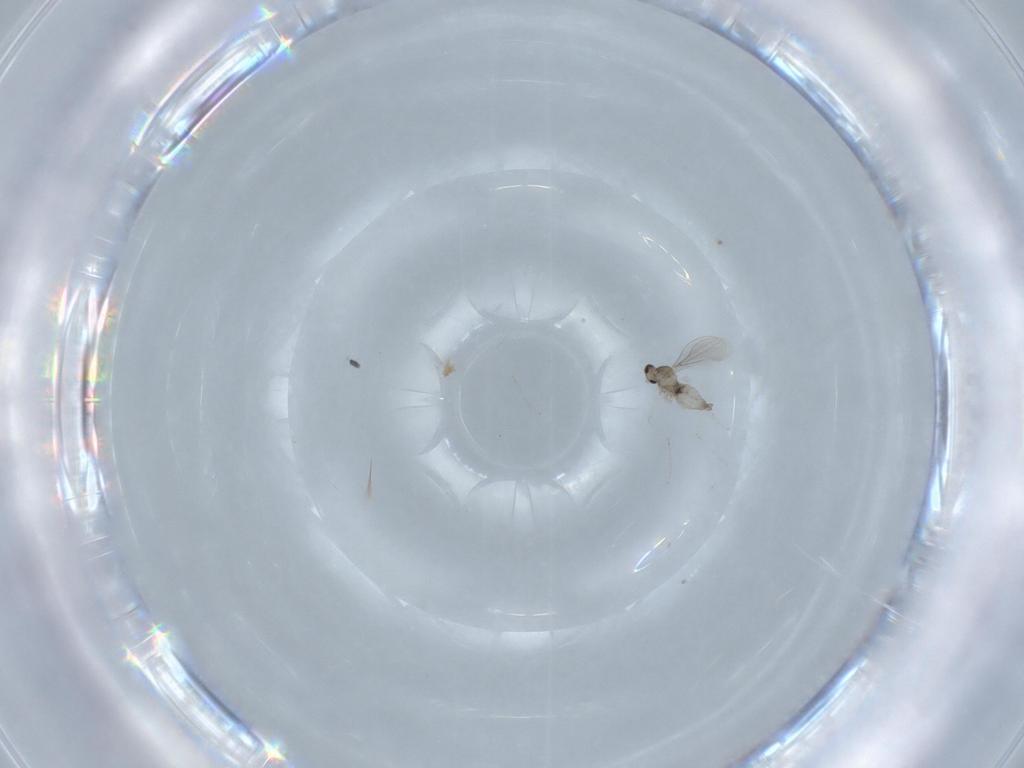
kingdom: Animalia
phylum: Arthropoda
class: Insecta
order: Diptera
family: Cecidomyiidae
